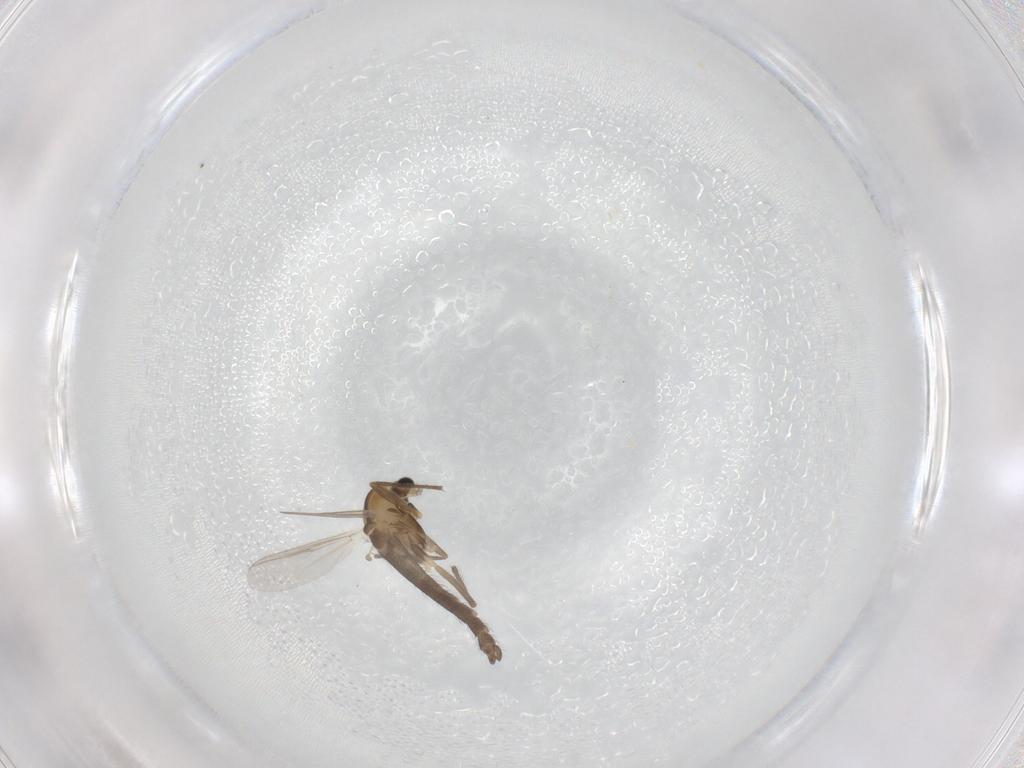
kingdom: Animalia
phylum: Arthropoda
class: Insecta
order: Diptera
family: Chironomidae
